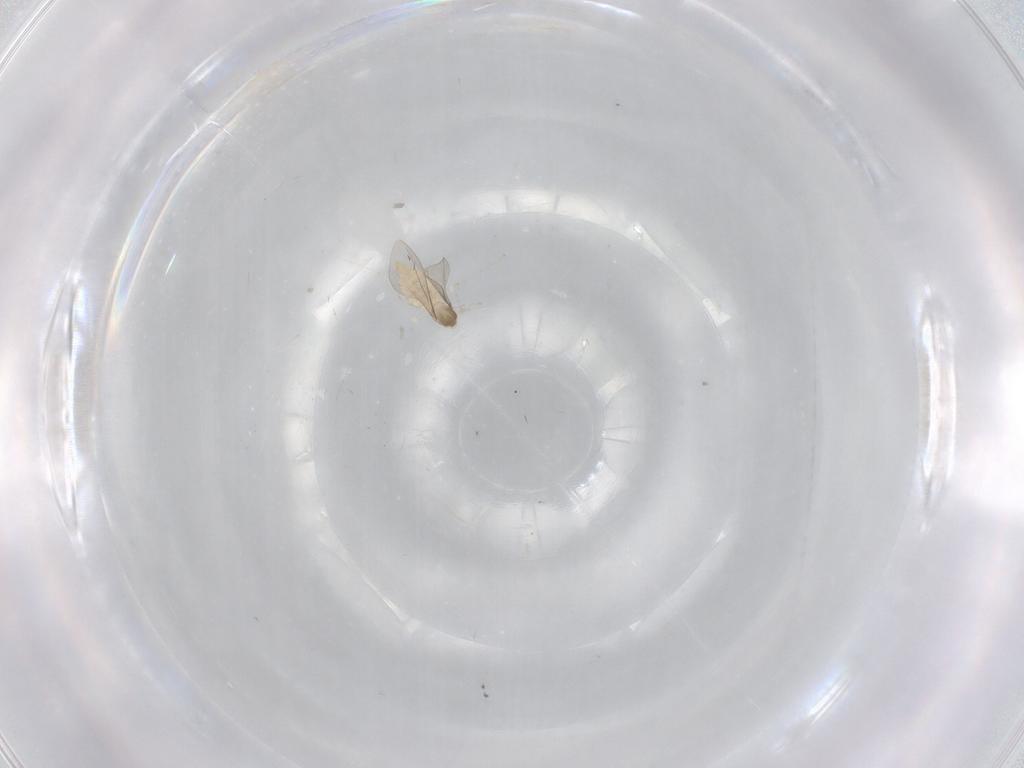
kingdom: Animalia
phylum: Arthropoda
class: Insecta
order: Diptera
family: Cecidomyiidae
